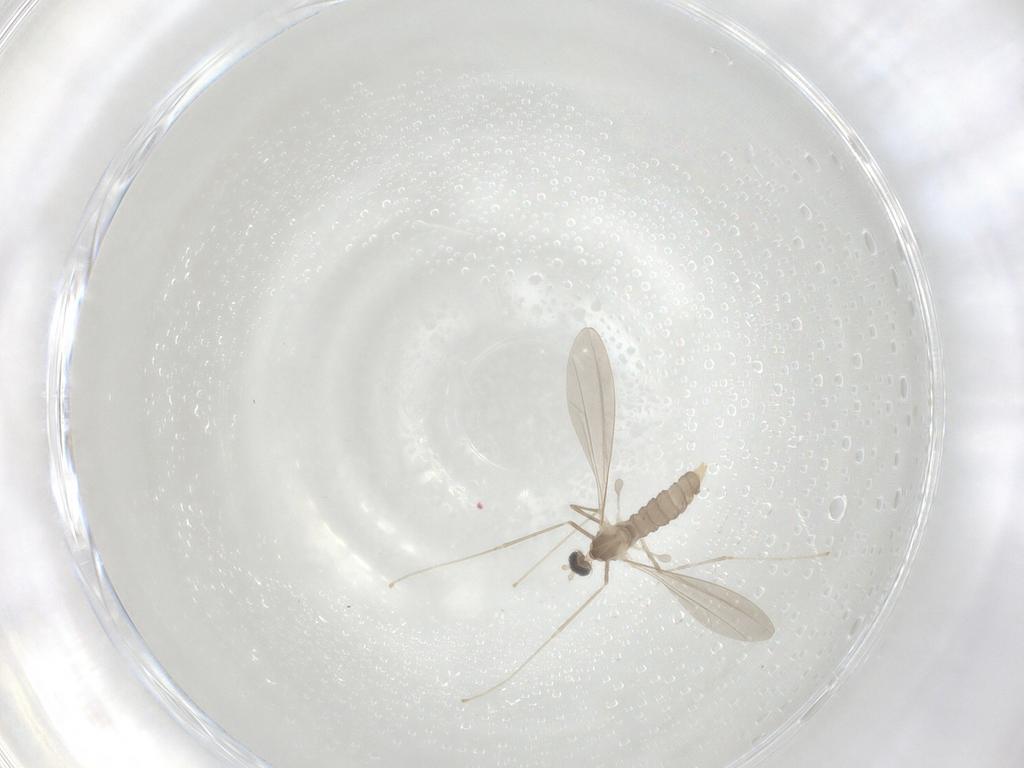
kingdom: Animalia
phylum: Arthropoda
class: Insecta
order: Diptera
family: Cecidomyiidae
